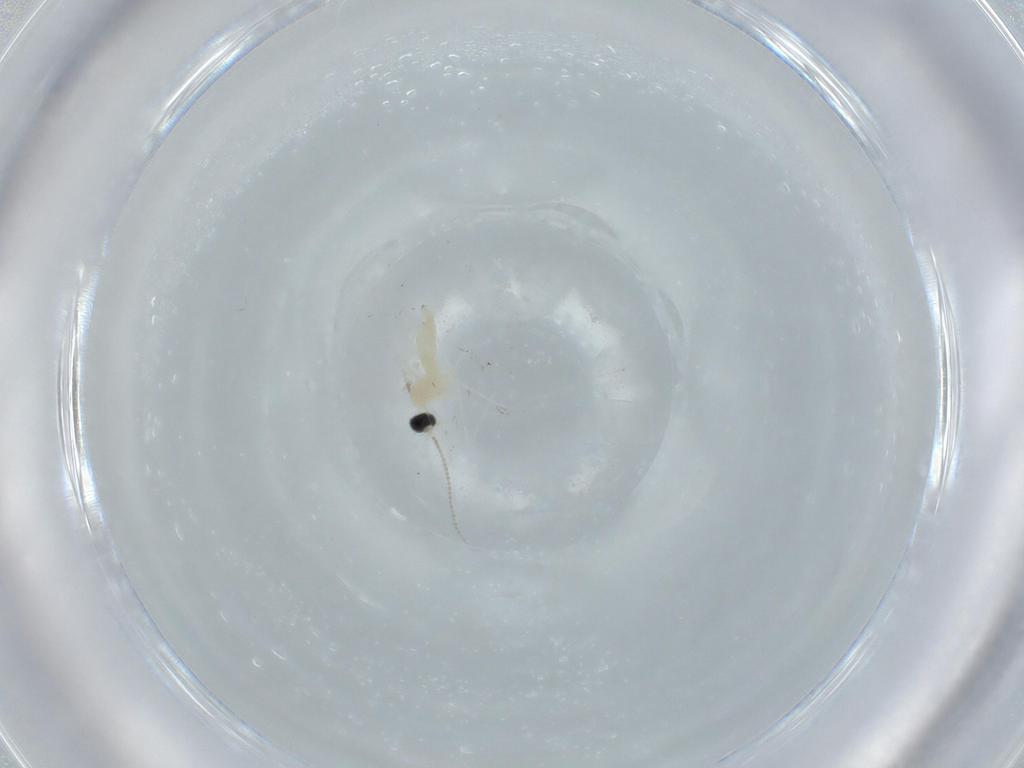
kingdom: Animalia
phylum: Arthropoda
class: Insecta
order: Diptera
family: Cecidomyiidae
